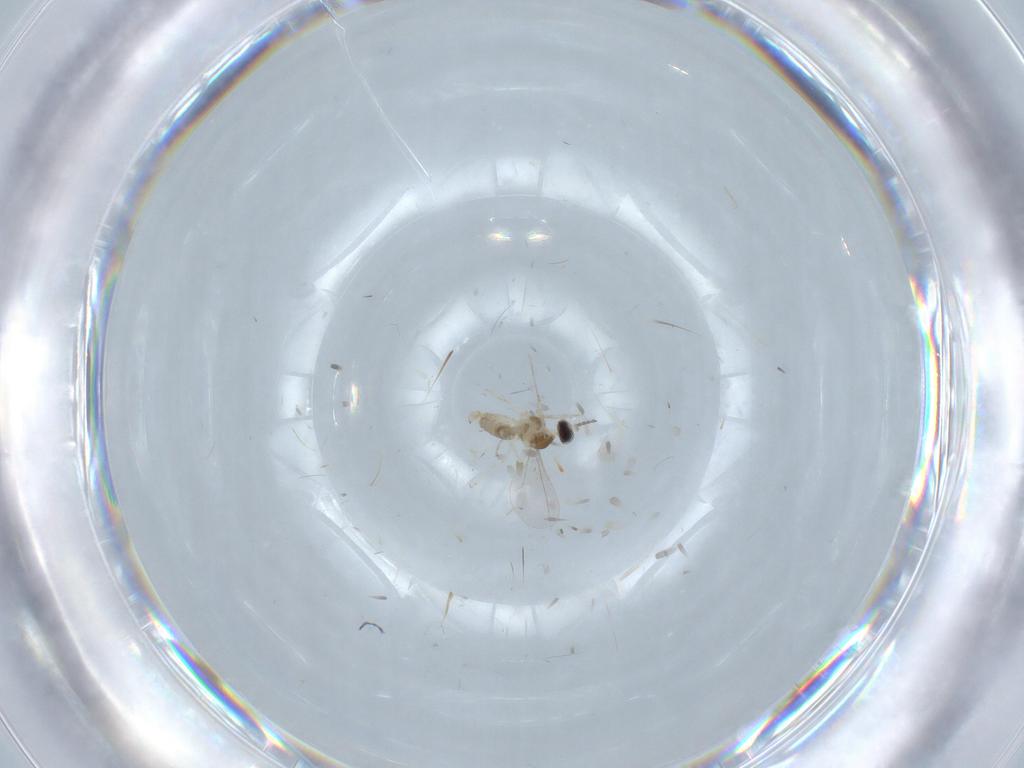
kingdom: Animalia
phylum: Arthropoda
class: Insecta
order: Diptera
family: Cecidomyiidae
